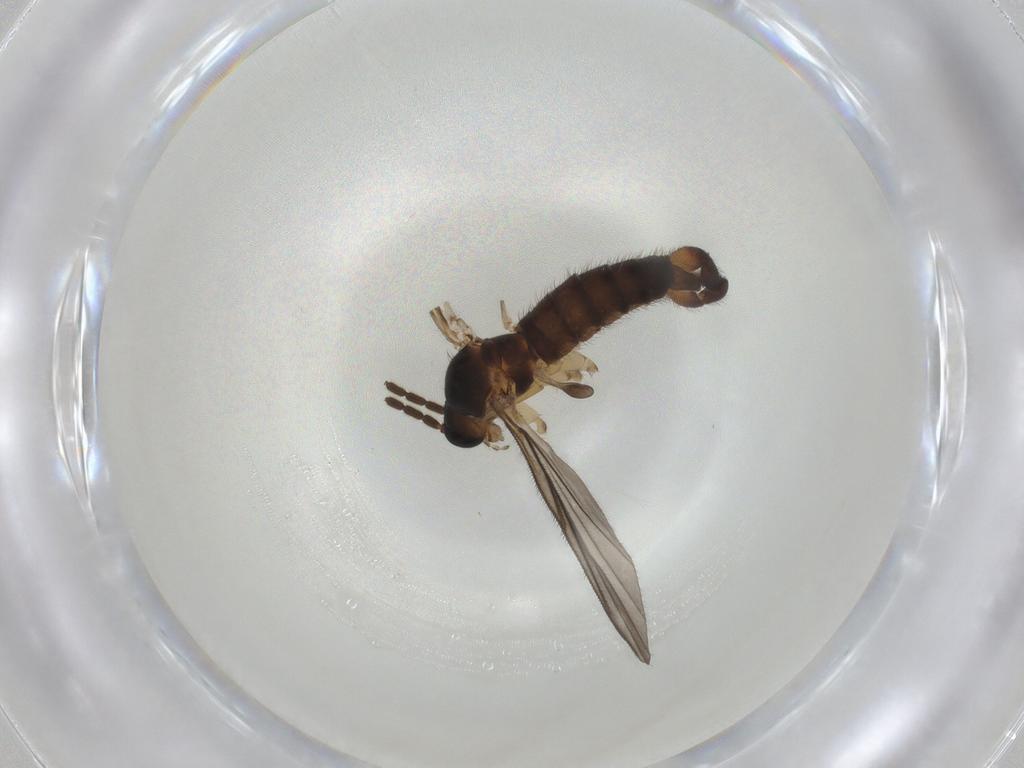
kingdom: Animalia
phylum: Arthropoda
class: Insecta
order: Diptera
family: Sciaridae
